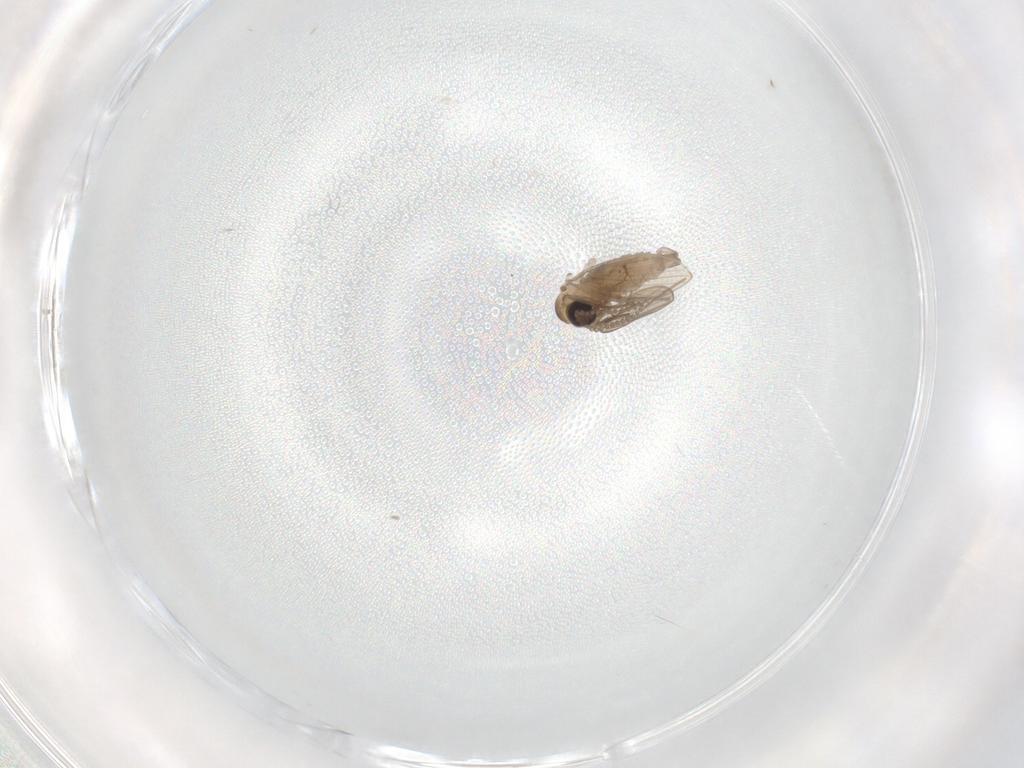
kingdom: Animalia
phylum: Arthropoda
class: Insecta
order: Diptera
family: Psychodidae
